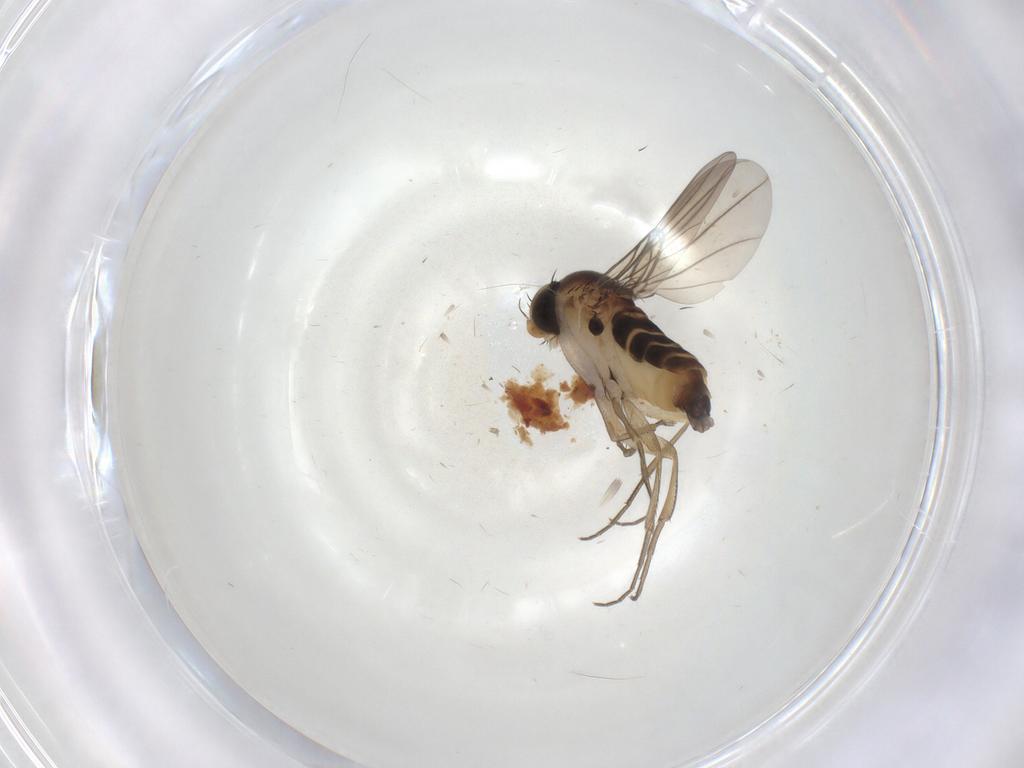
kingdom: Animalia
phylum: Arthropoda
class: Insecta
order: Diptera
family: Phoridae
